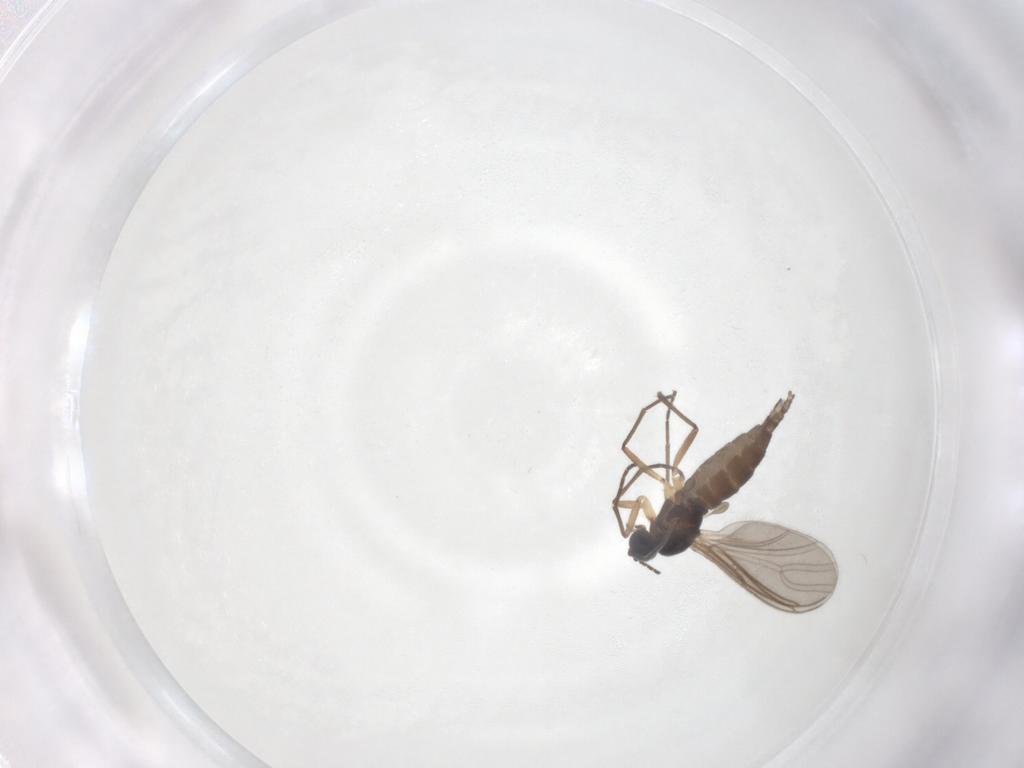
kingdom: Animalia
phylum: Arthropoda
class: Insecta
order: Diptera
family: Sciaridae
